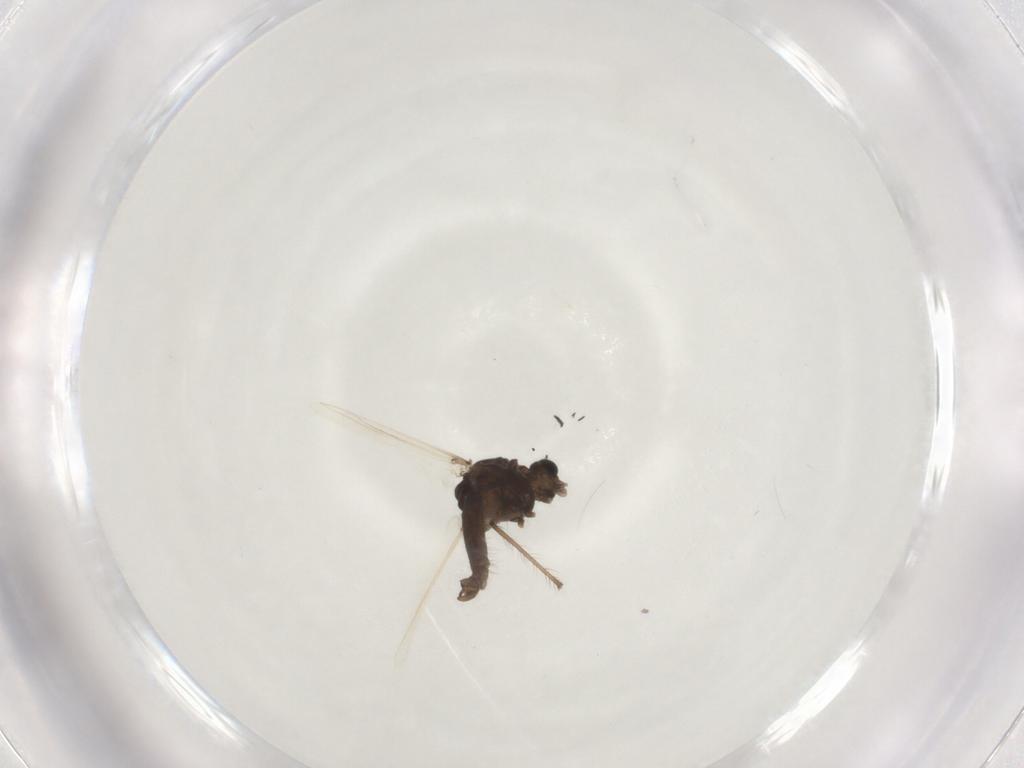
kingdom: Animalia
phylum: Arthropoda
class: Insecta
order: Diptera
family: Chironomidae
